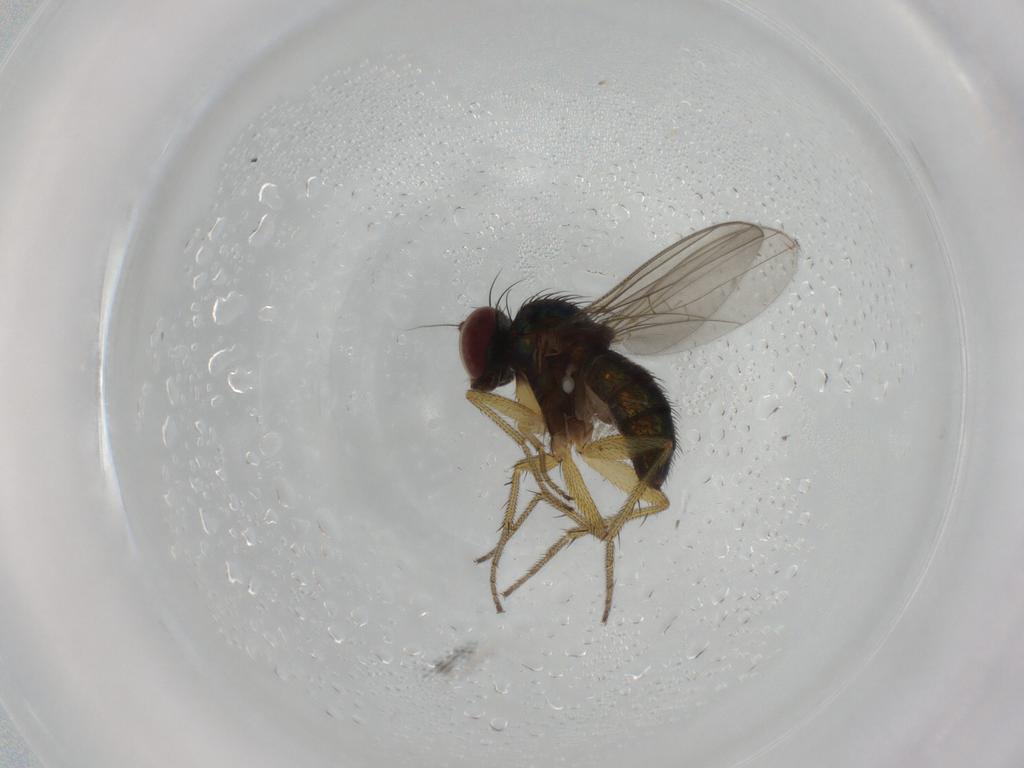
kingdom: Animalia
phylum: Arthropoda
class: Insecta
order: Diptera
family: Dolichopodidae
